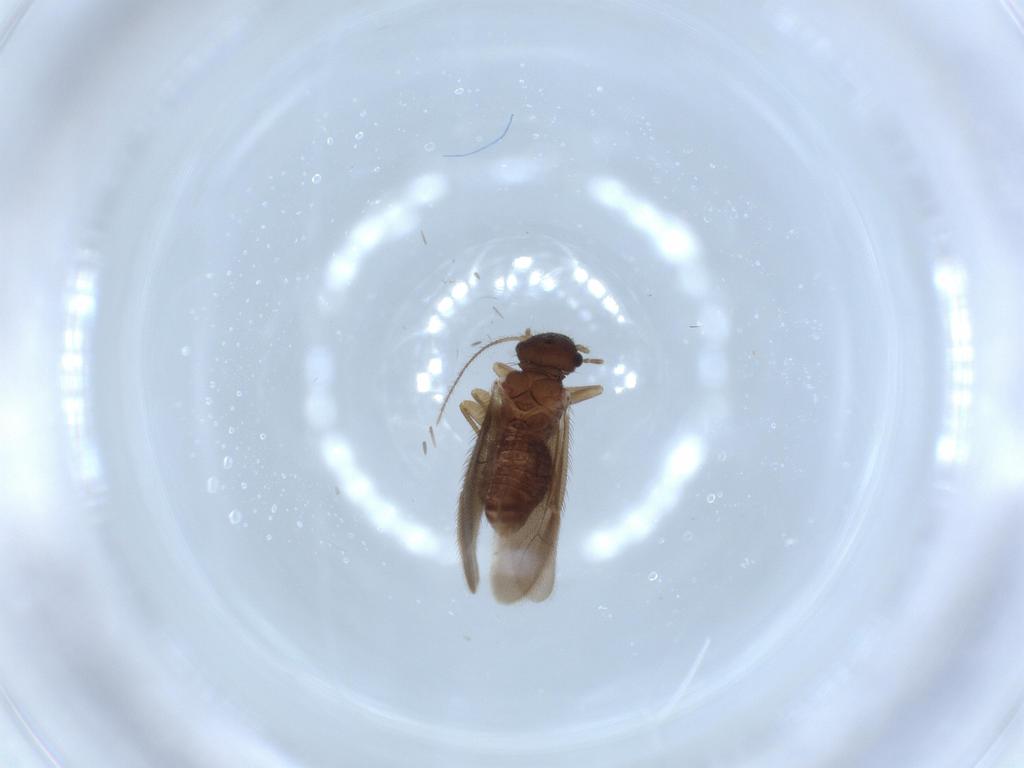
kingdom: Animalia
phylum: Arthropoda
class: Insecta
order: Psocodea
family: Archipsocidae
